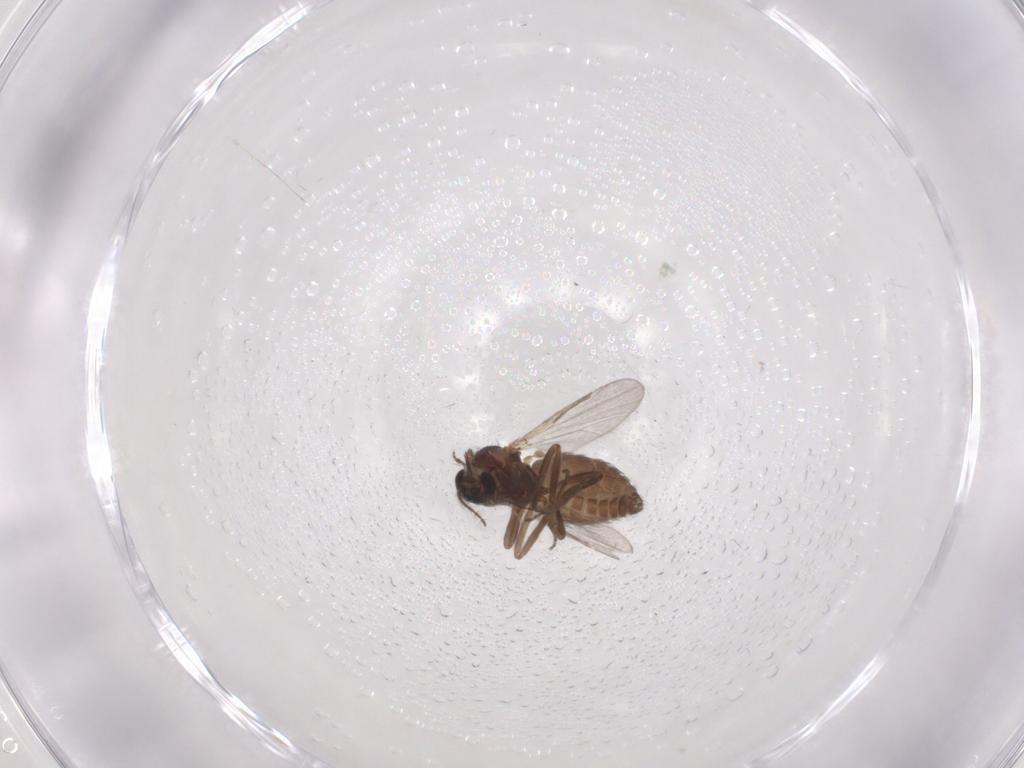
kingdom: Animalia
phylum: Arthropoda
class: Insecta
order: Diptera
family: Ceratopogonidae
